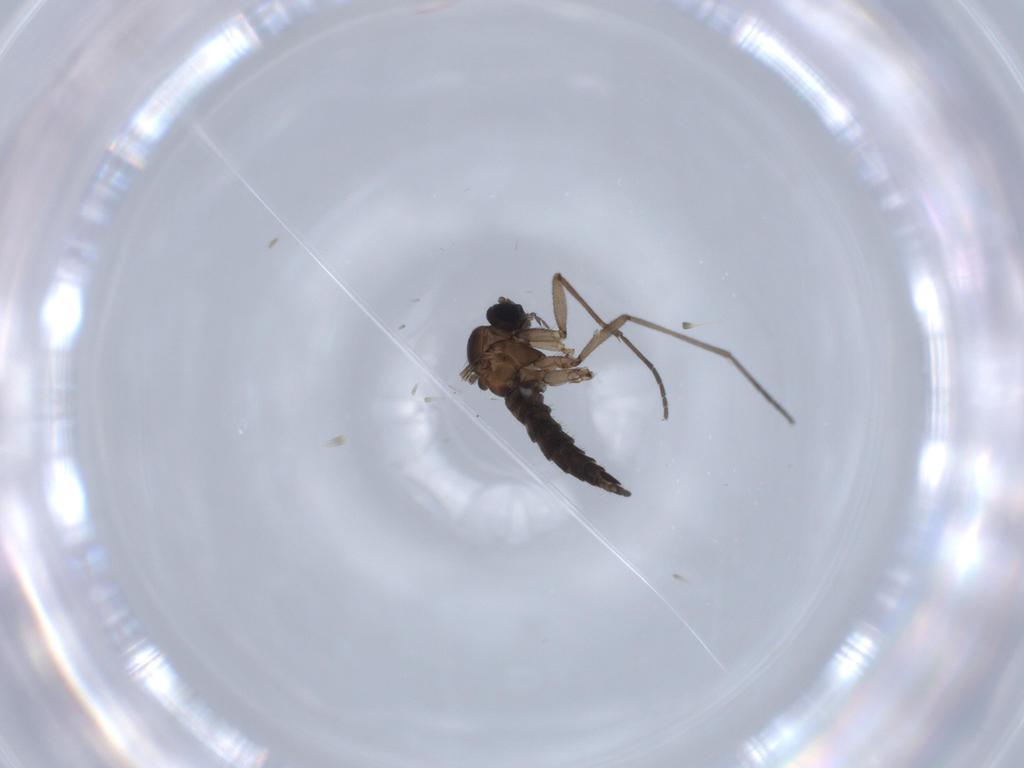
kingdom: Animalia
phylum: Arthropoda
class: Insecta
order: Diptera
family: Sciaridae
